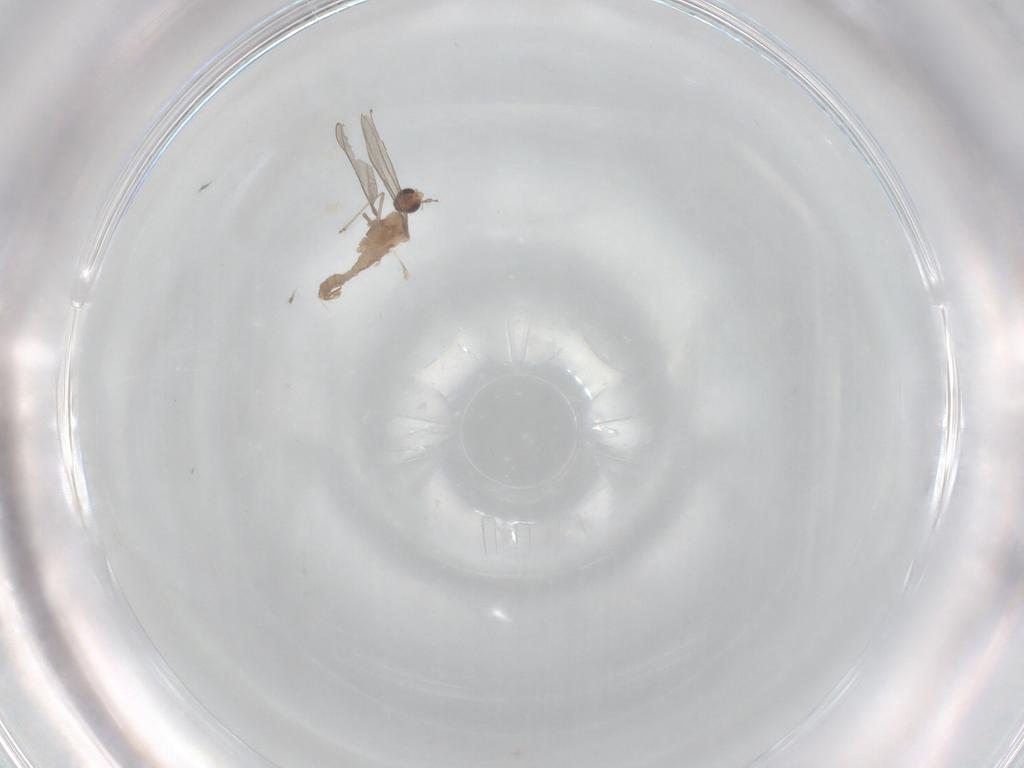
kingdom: Animalia
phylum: Arthropoda
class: Insecta
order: Diptera
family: Cecidomyiidae
